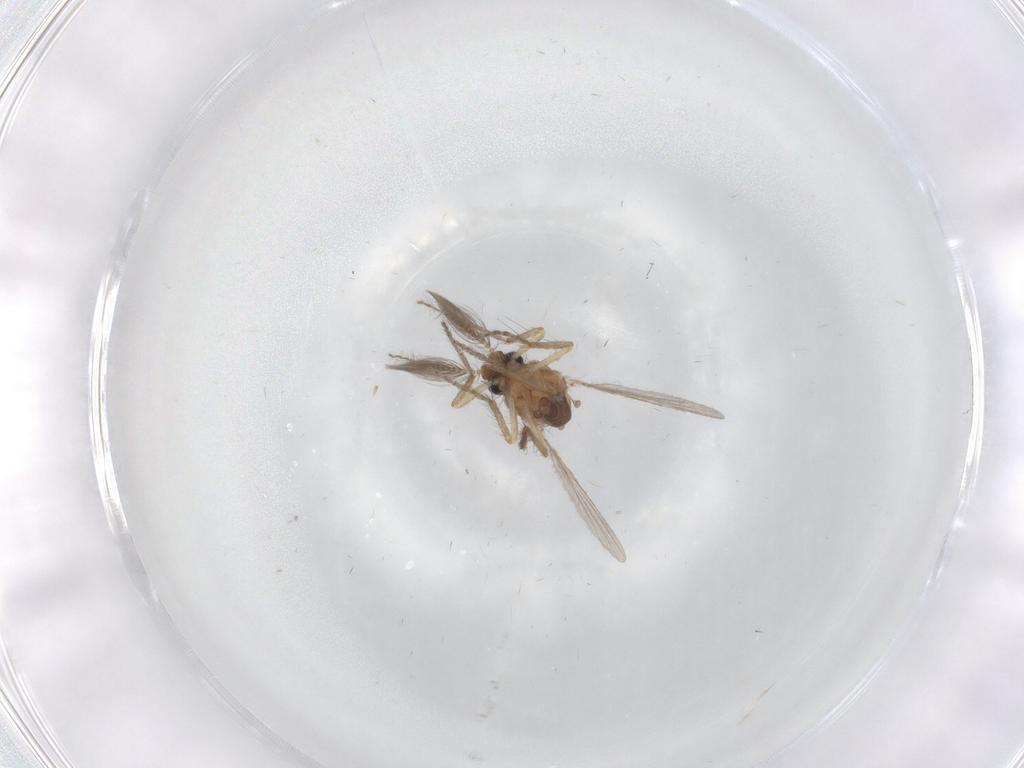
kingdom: Animalia
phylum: Arthropoda
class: Insecta
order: Diptera
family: Ceratopogonidae
